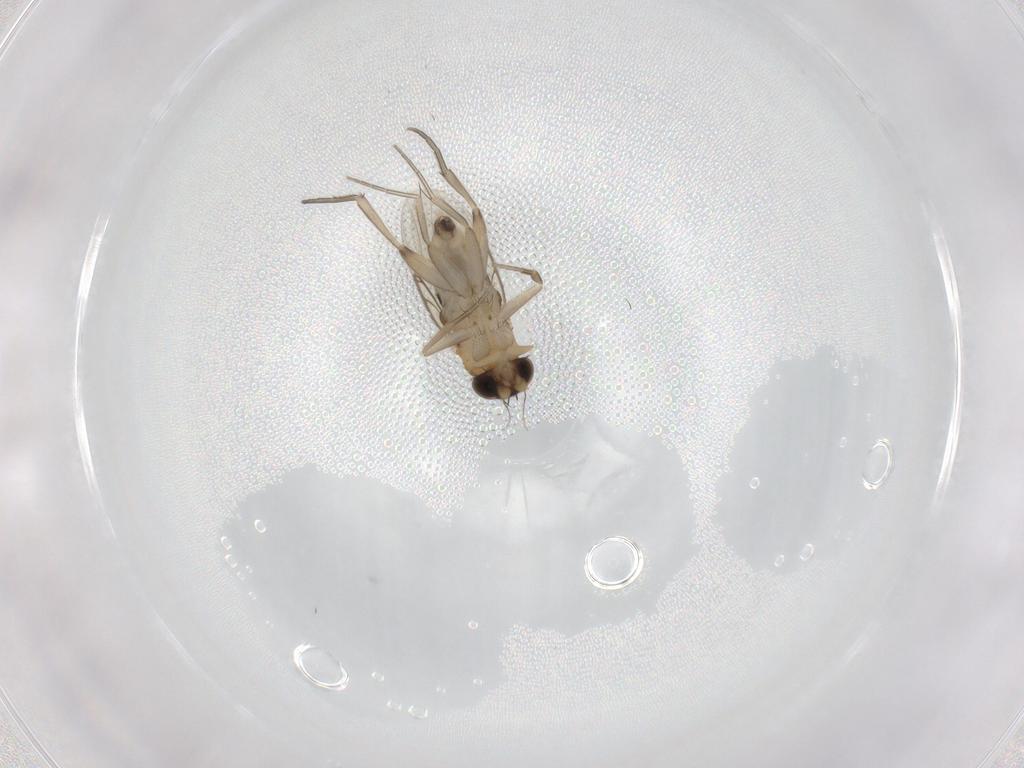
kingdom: Animalia
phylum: Arthropoda
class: Insecta
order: Diptera
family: Phoridae
